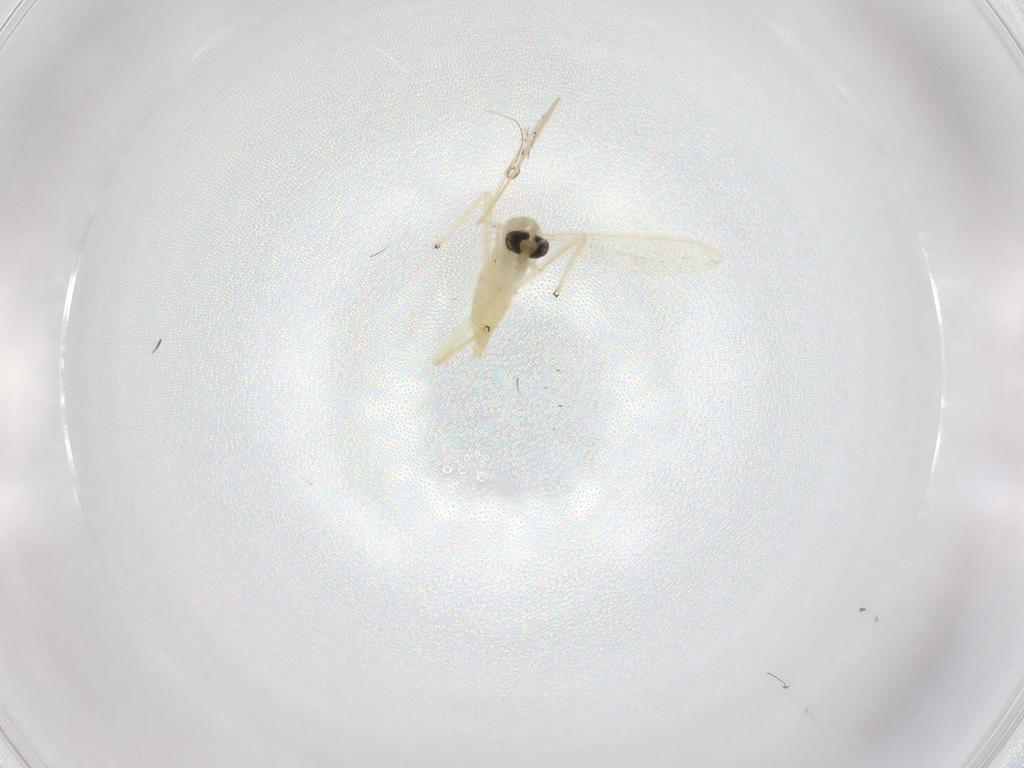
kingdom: Animalia
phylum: Arthropoda
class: Insecta
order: Diptera
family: Chironomidae
